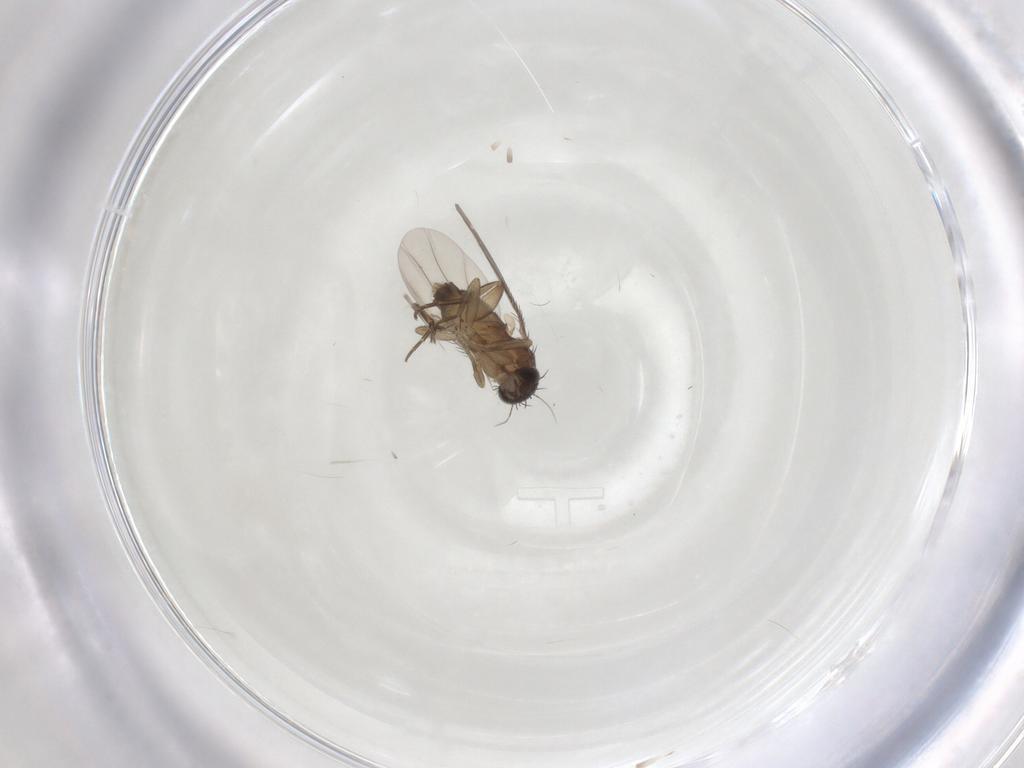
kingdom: Animalia
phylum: Arthropoda
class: Insecta
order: Diptera
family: Phoridae
